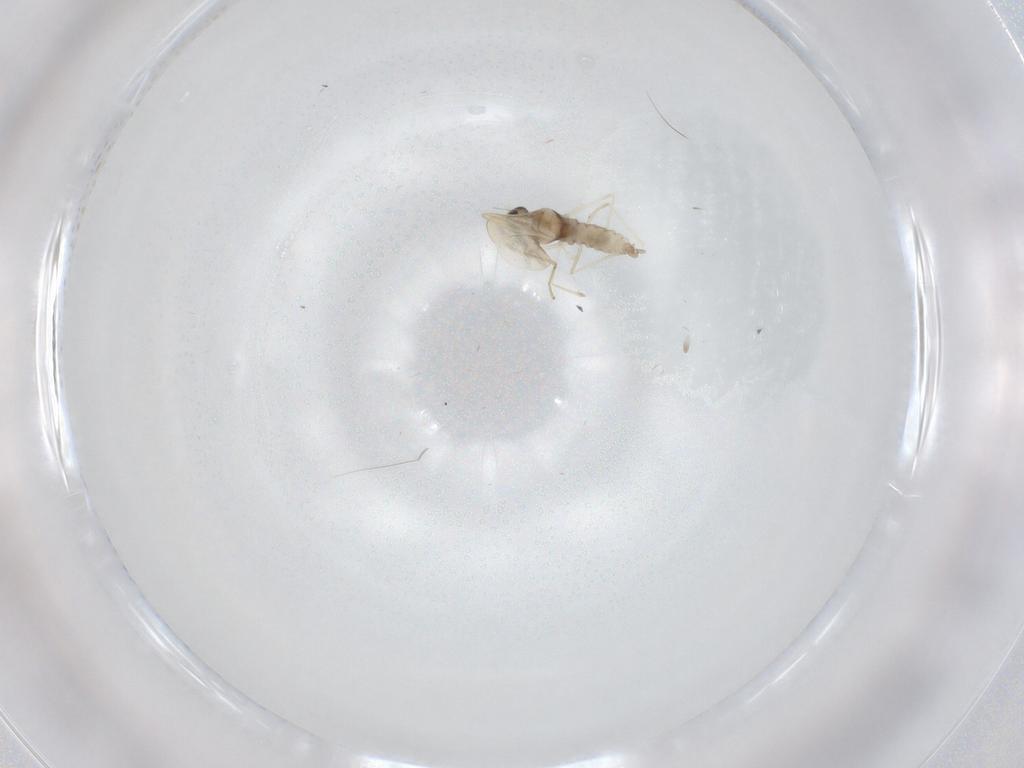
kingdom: Animalia
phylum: Arthropoda
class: Insecta
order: Diptera
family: Cecidomyiidae
